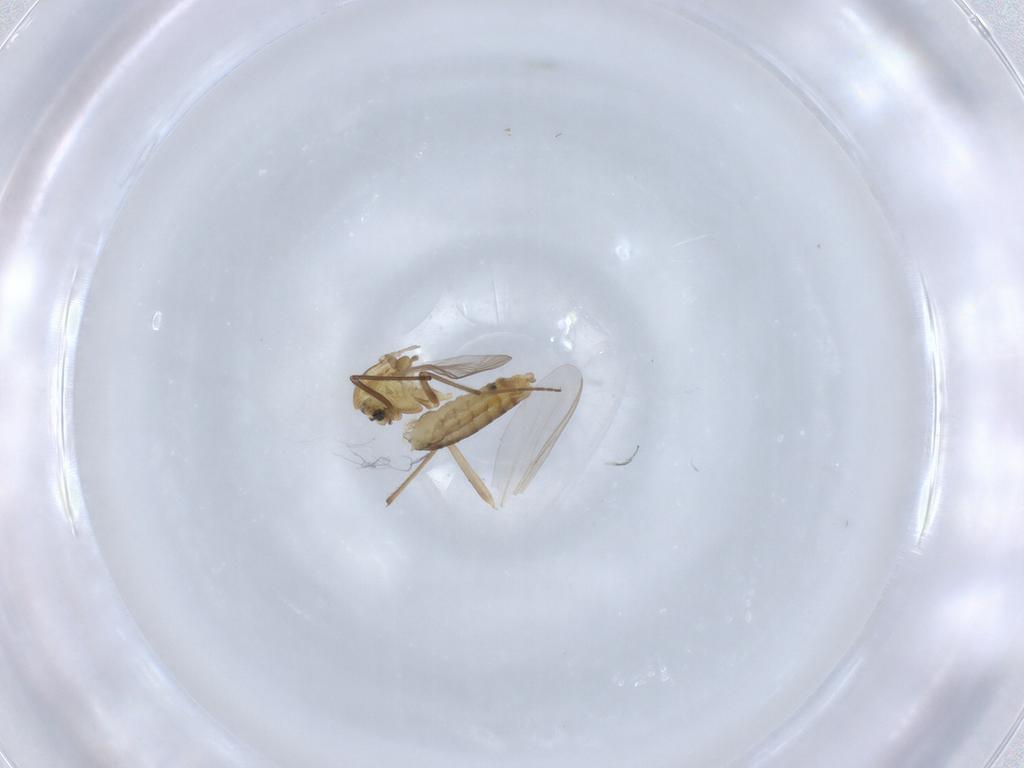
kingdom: Animalia
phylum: Arthropoda
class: Insecta
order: Diptera
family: Chironomidae
